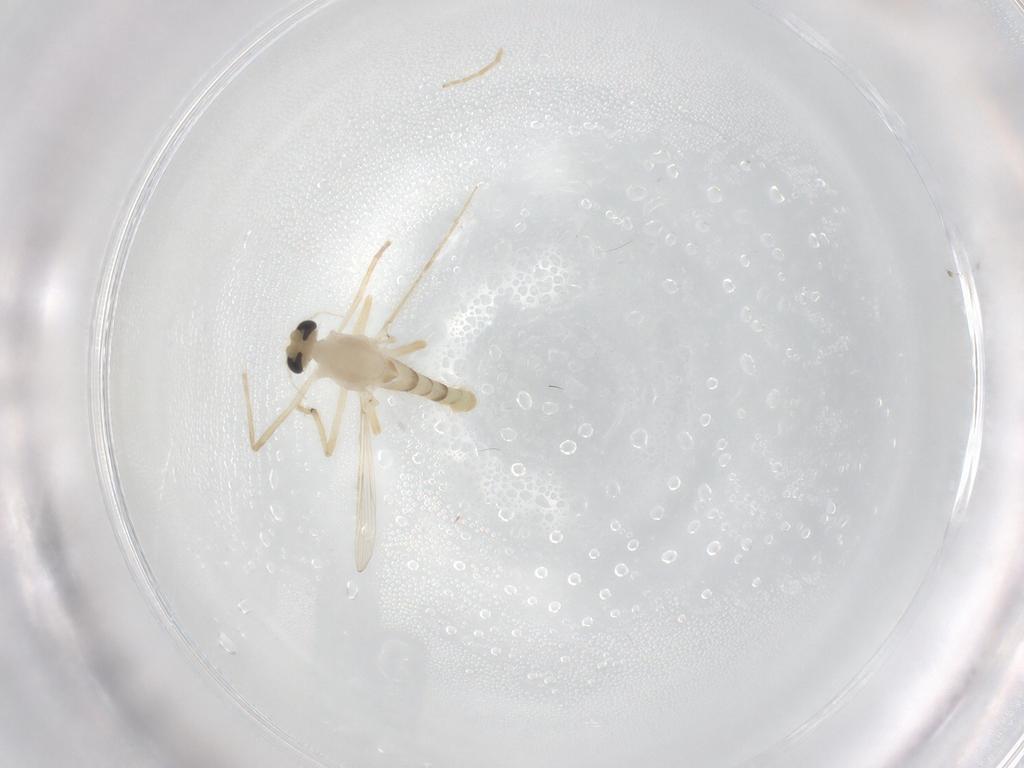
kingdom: Animalia
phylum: Arthropoda
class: Insecta
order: Diptera
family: Chironomidae
